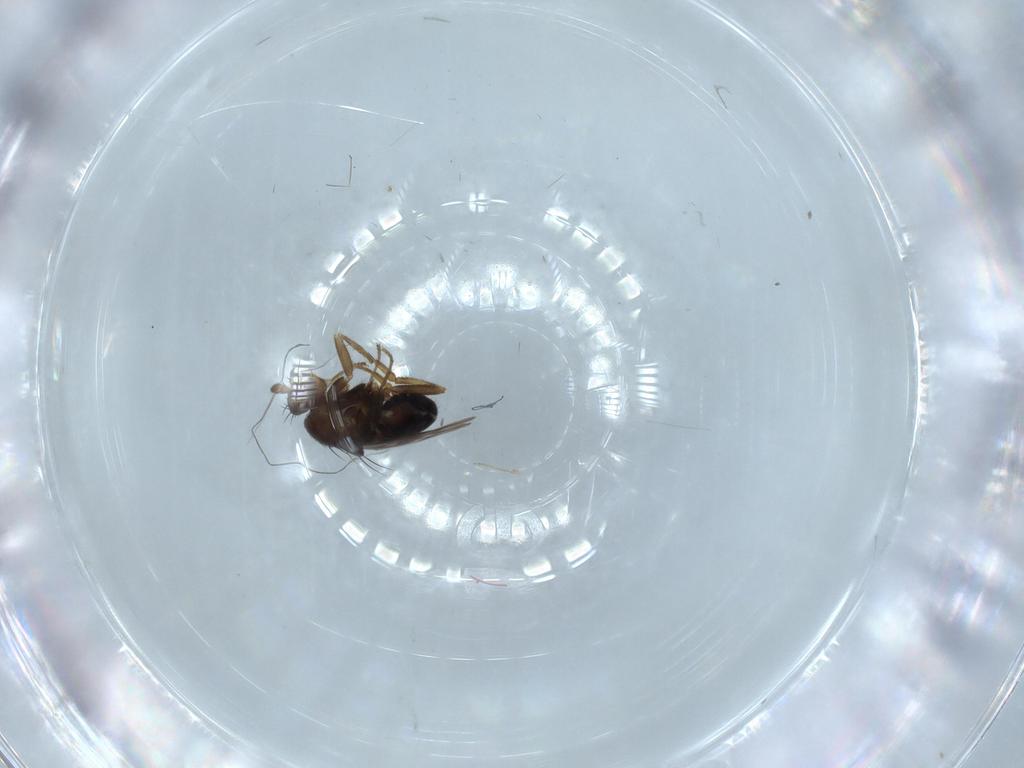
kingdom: Animalia
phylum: Arthropoda
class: Insecta
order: Diptera
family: Sphaeroceridae
